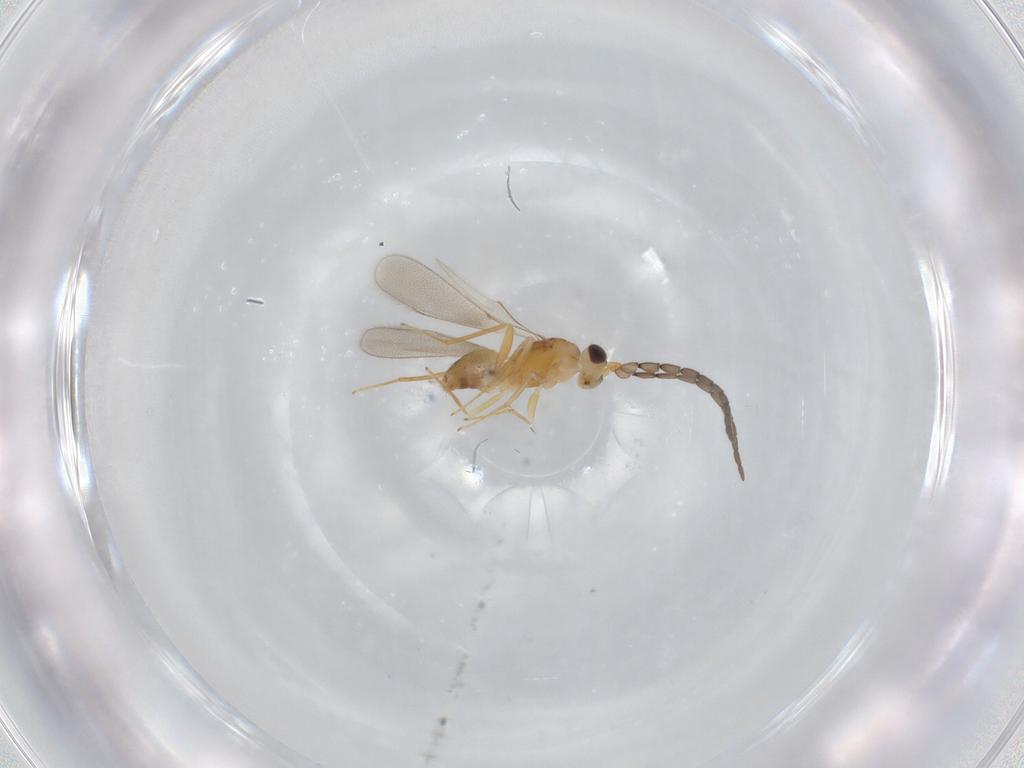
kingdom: Animalia
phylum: Arthropoda
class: Insecta
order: Hymenoptera
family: Mymaridae
